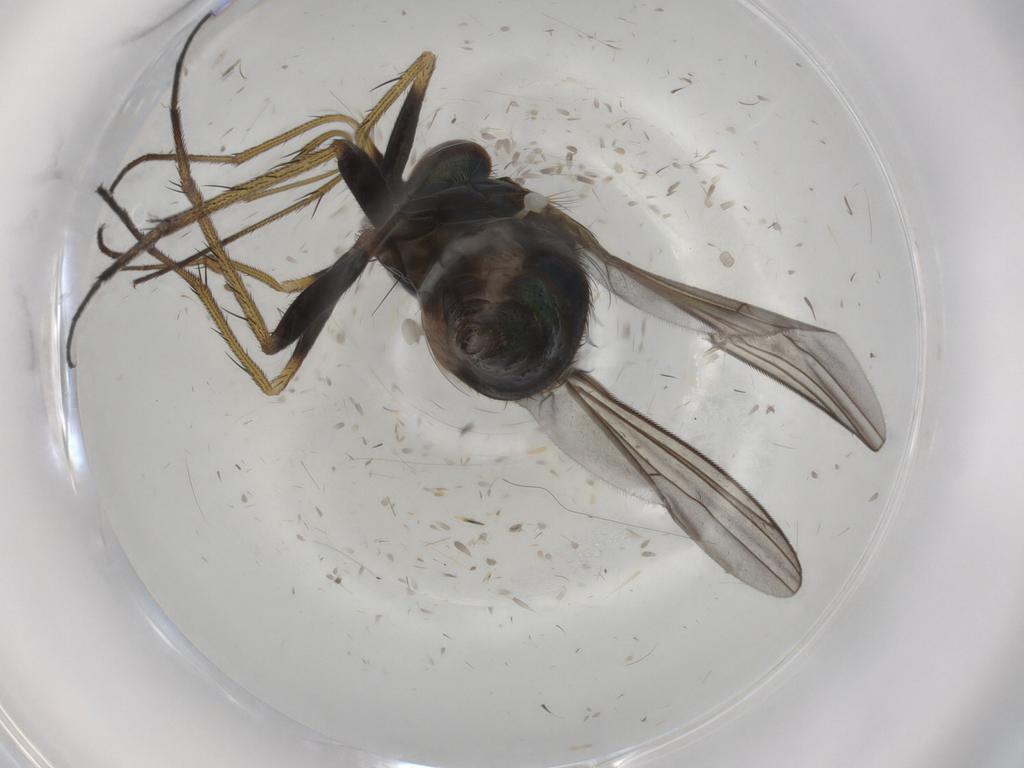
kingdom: Animalia
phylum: Arthropoda
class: Insecta
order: Diptera
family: Dolichopodidae
